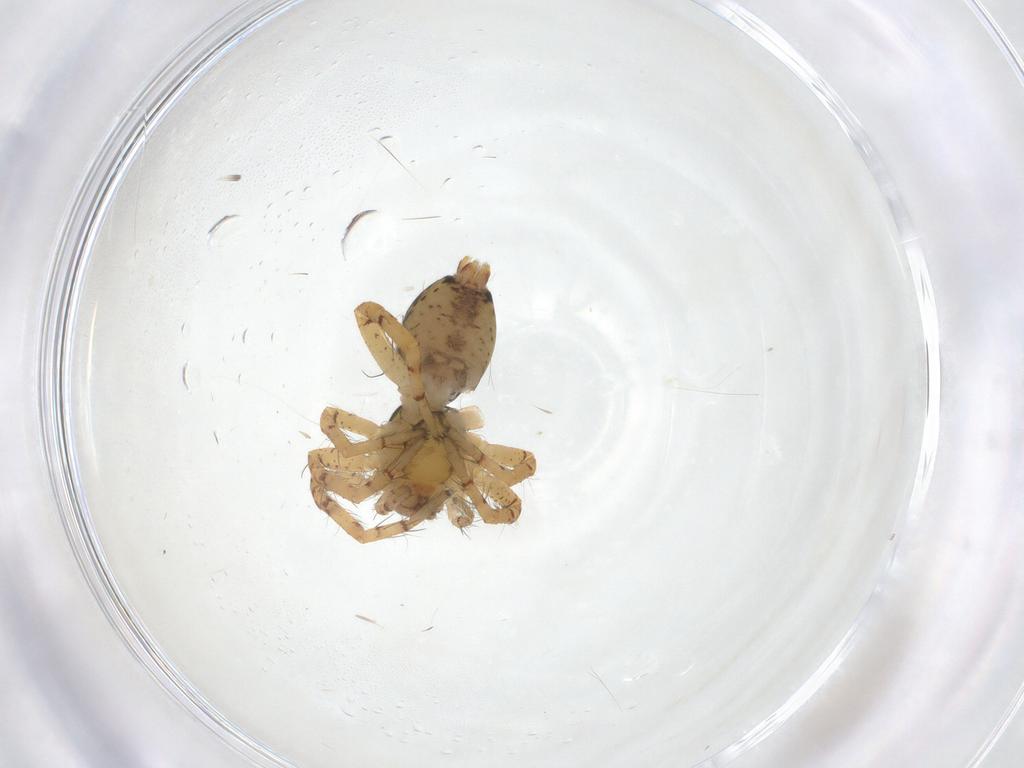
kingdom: Animalia
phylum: Arthropoda
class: Arachnida
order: Araneae
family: Anyphaenidae
